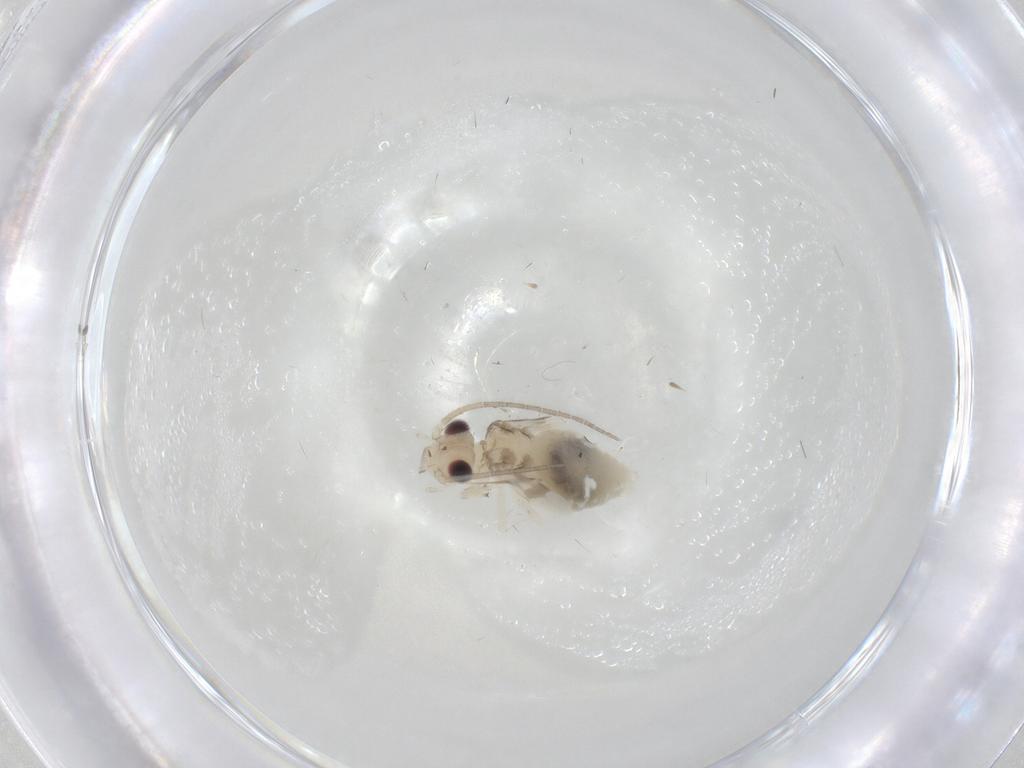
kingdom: Animalia
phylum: Arthropoda
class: Insecta
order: Psocodea
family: Caeciliusidae
